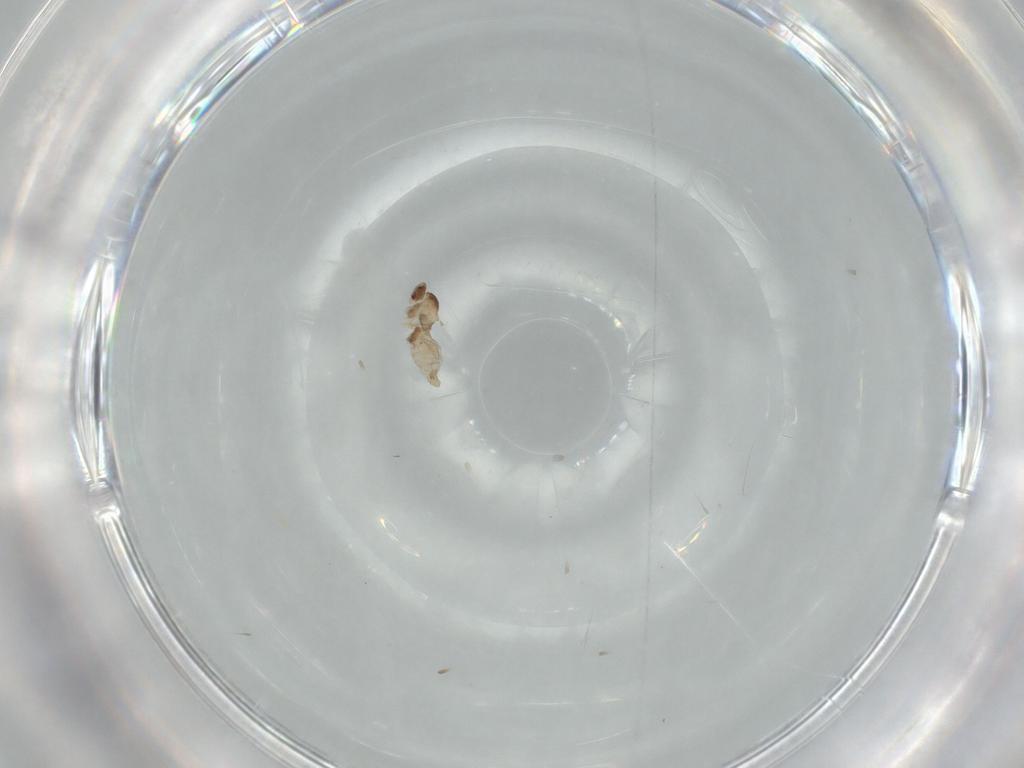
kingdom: Animalia
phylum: Arthropoda
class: Insecta
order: Diptera
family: Cecidomyiidae
